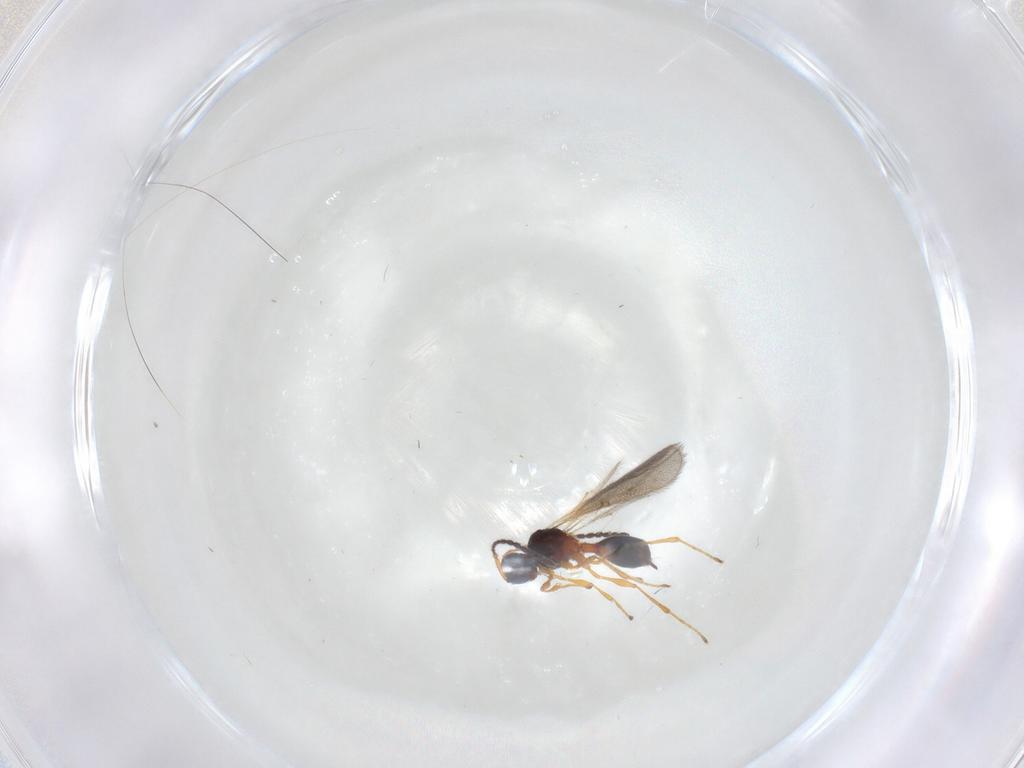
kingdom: Animalia
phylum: Arthropoda
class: Insecta
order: Hymenoptera
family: Diapriidae
